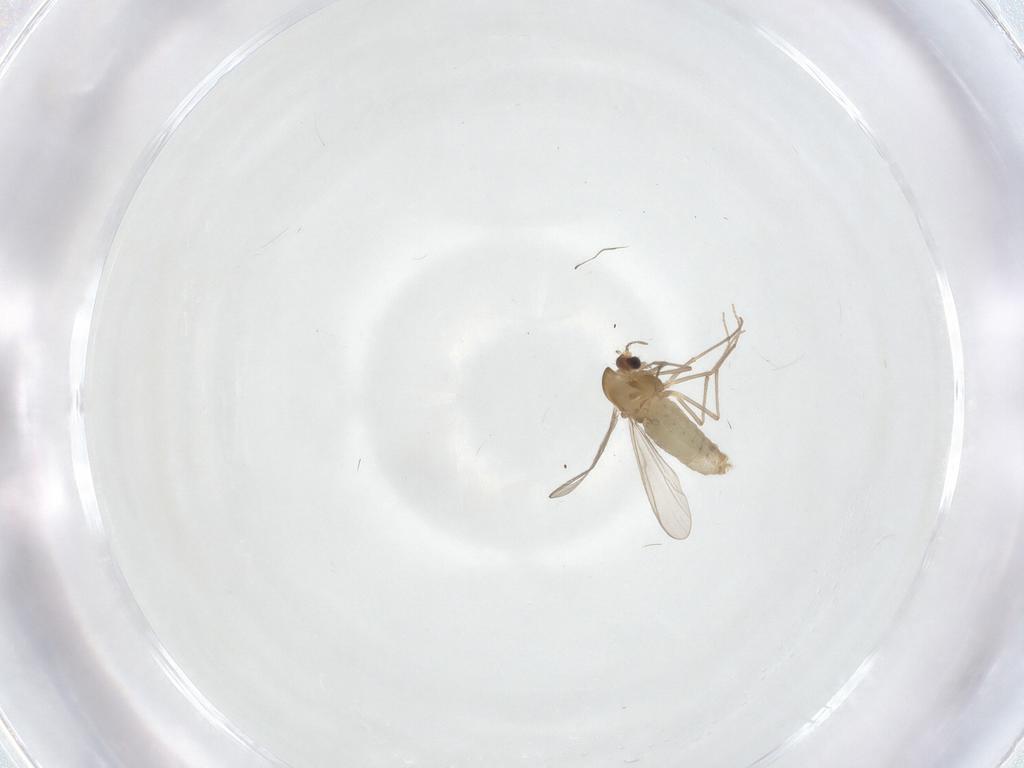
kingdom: Animalia
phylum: Arthropoda
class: Insecta
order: Diptera
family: Chironomidae
